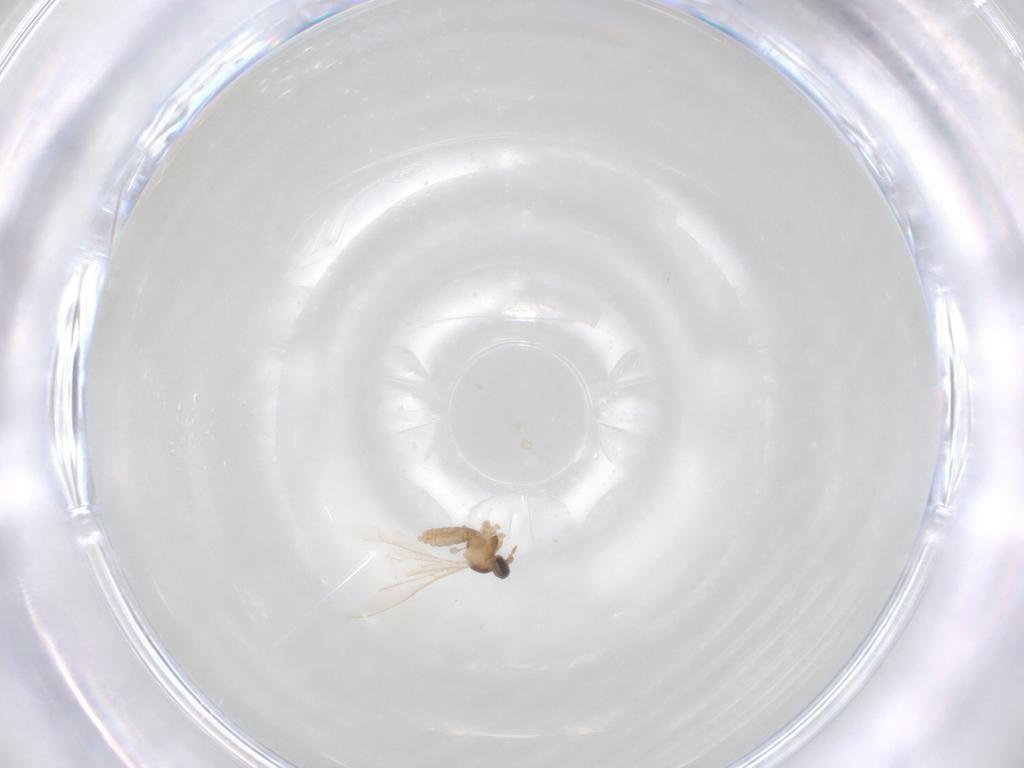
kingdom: Animalia
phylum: Arthropoda
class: Insecta
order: Diptera
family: Cecidomyiidae
